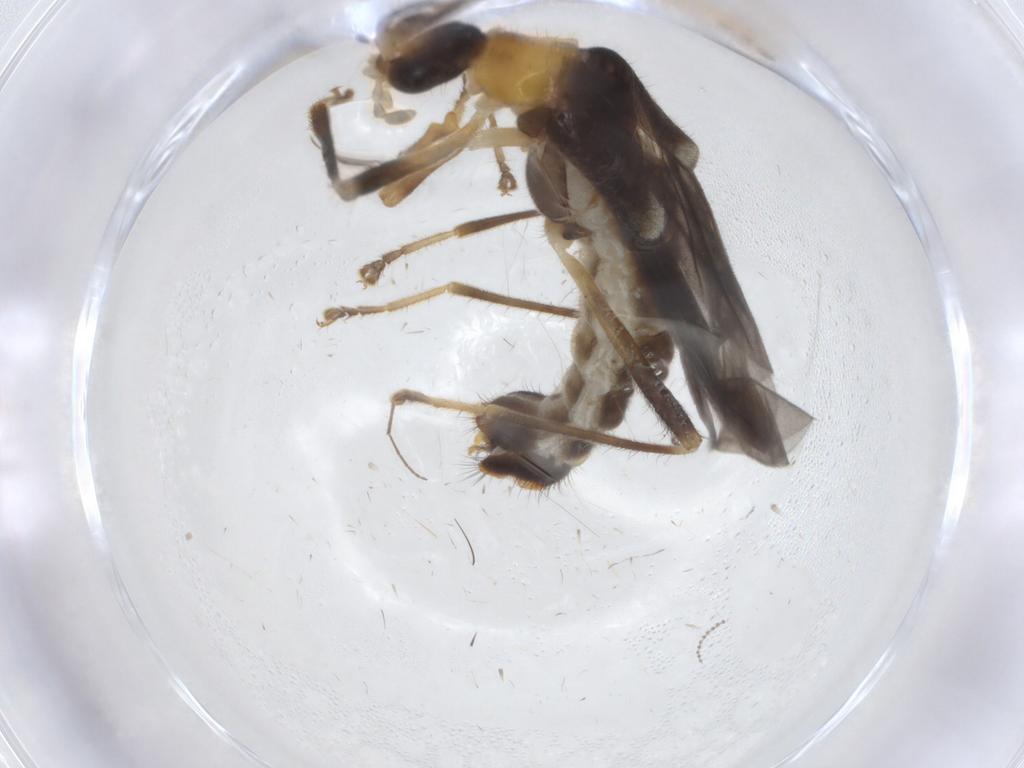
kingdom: Animalia
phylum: Arthropoda
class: Insecta
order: Coleoptera
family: Cantharidae
